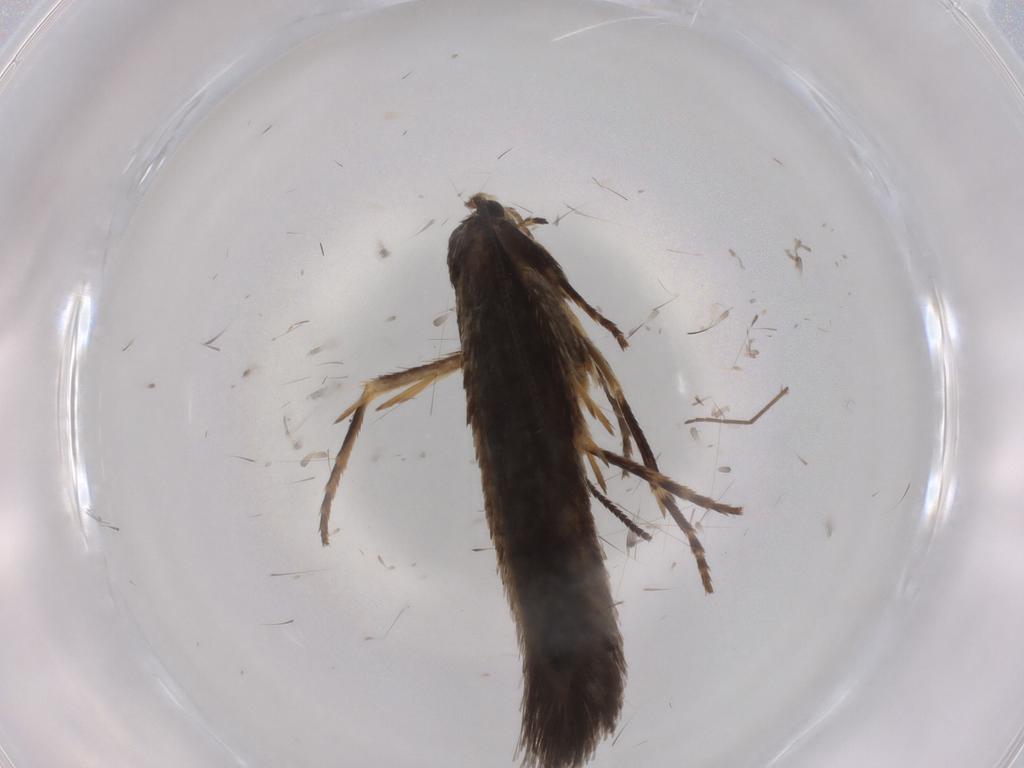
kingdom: Animalia
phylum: Arthropoda
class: Insecta
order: Lepidoptera
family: Nepticulidae
